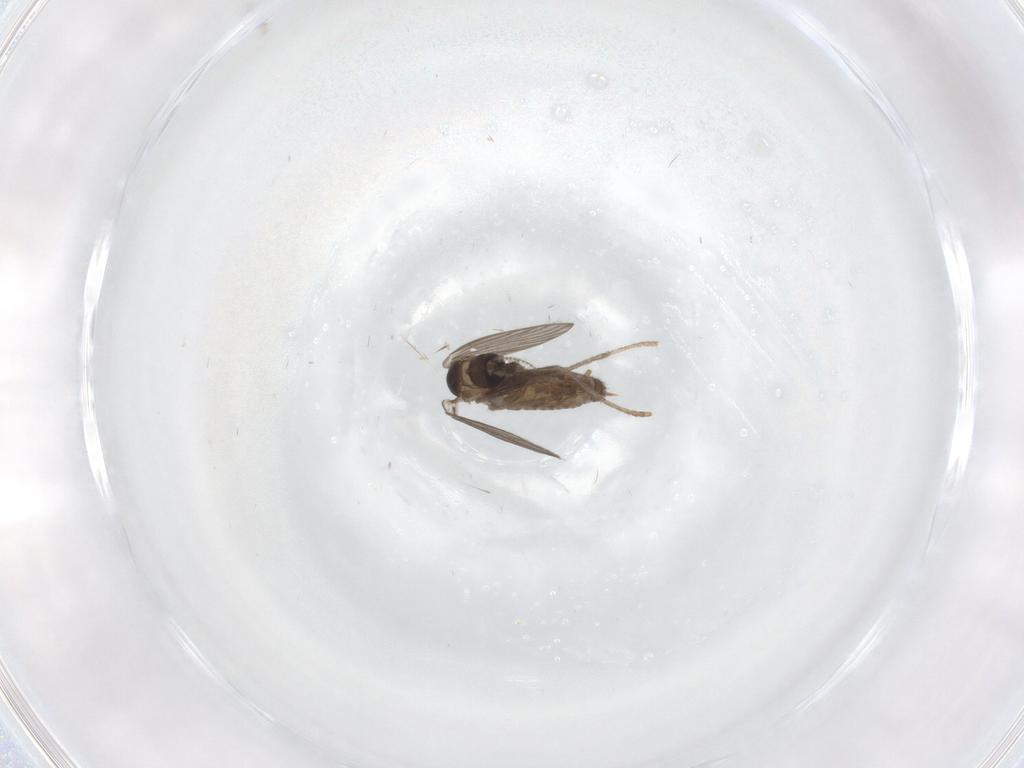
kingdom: Animalia
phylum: Arthropoda
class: Insecta
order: Diptera
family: Psychodidae
